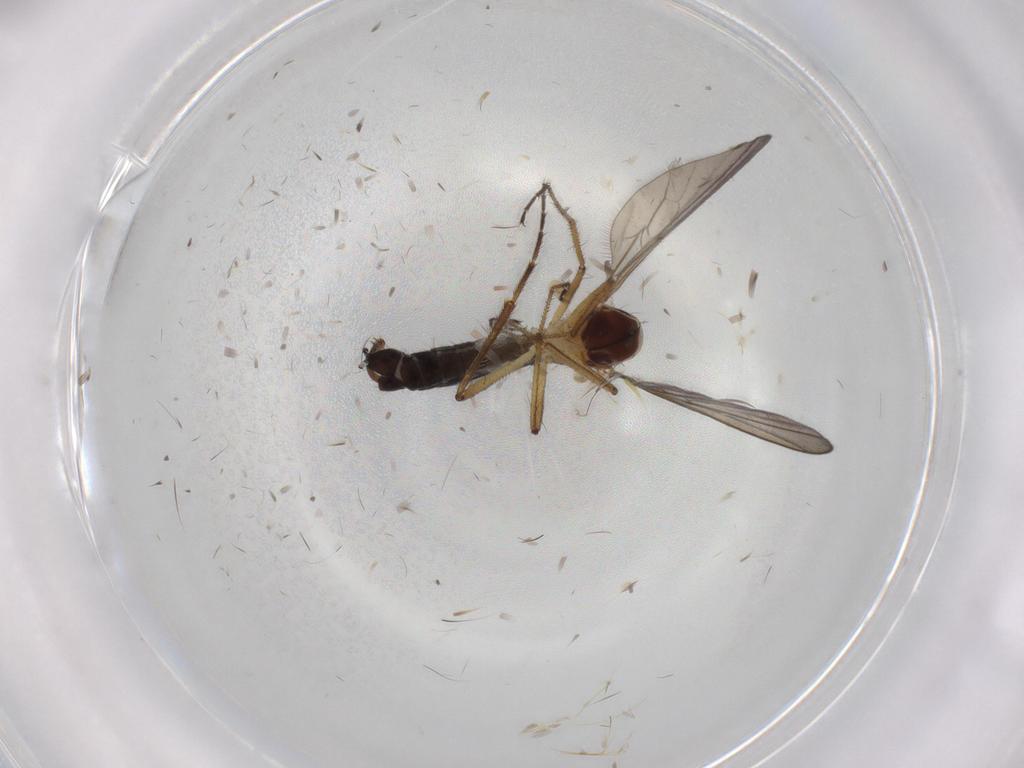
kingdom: Animalia
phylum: Arthropoda
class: Insecta
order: Diptera
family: Hybotidae
